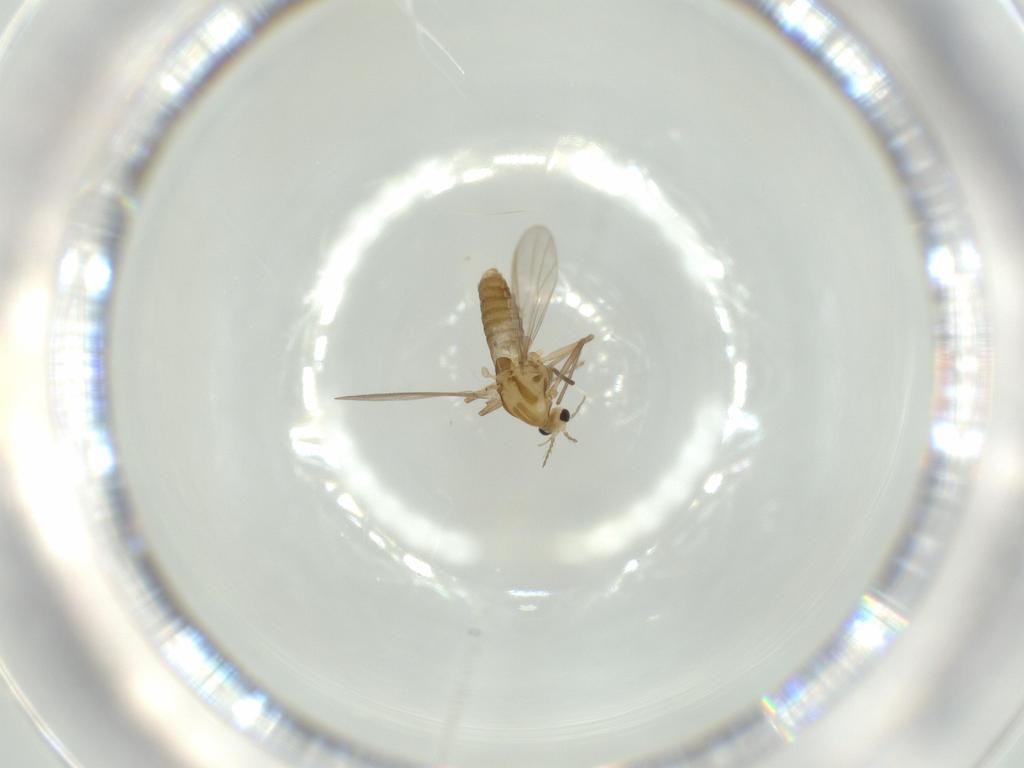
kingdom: Animalia
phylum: Arthropoda
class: Insecta
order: Diptera
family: Chironomidae
